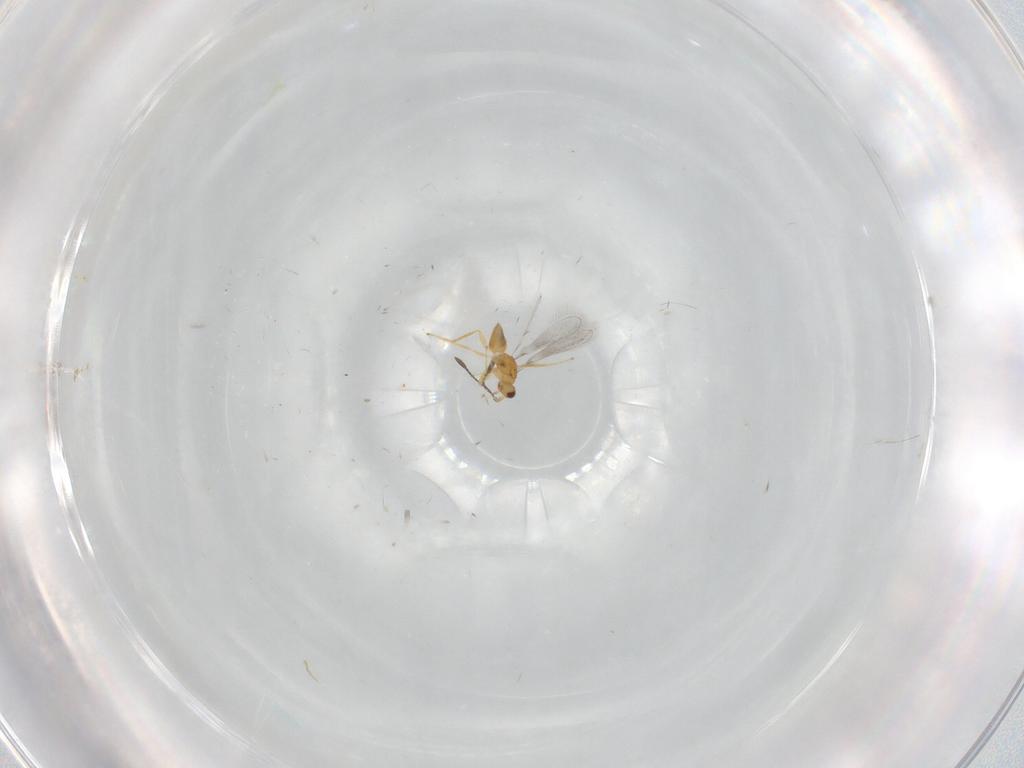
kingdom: Animalia
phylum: Arthropoda
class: Insecta
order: Hymenoptera
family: Mymaridae
